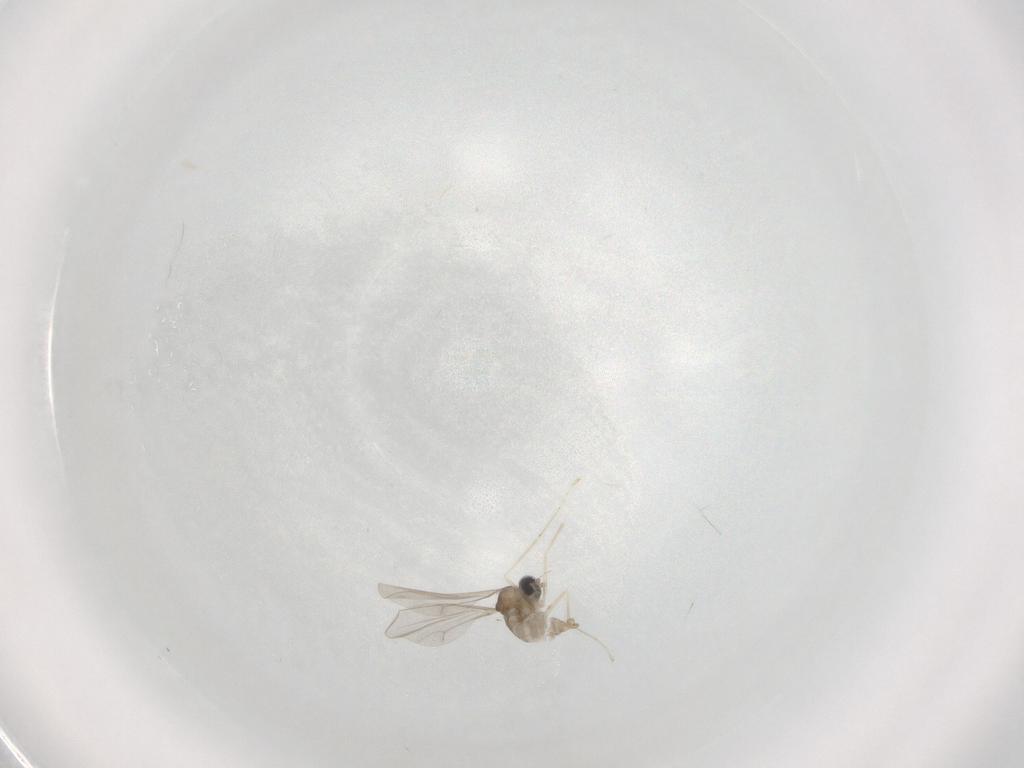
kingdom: Animalia
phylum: Arthropoda
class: Insecta
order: Diptera
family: Cecidomyiidae
